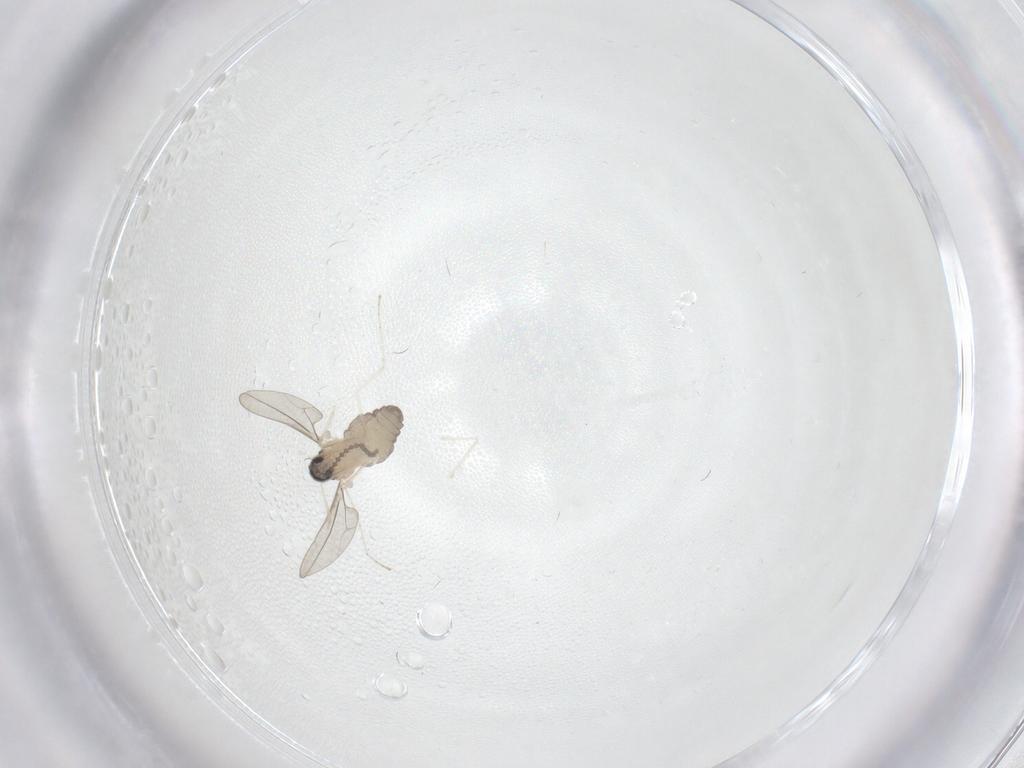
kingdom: Animalia
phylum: Arthropoda
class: Insecta
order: Diptera
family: Cecidomyiidae
